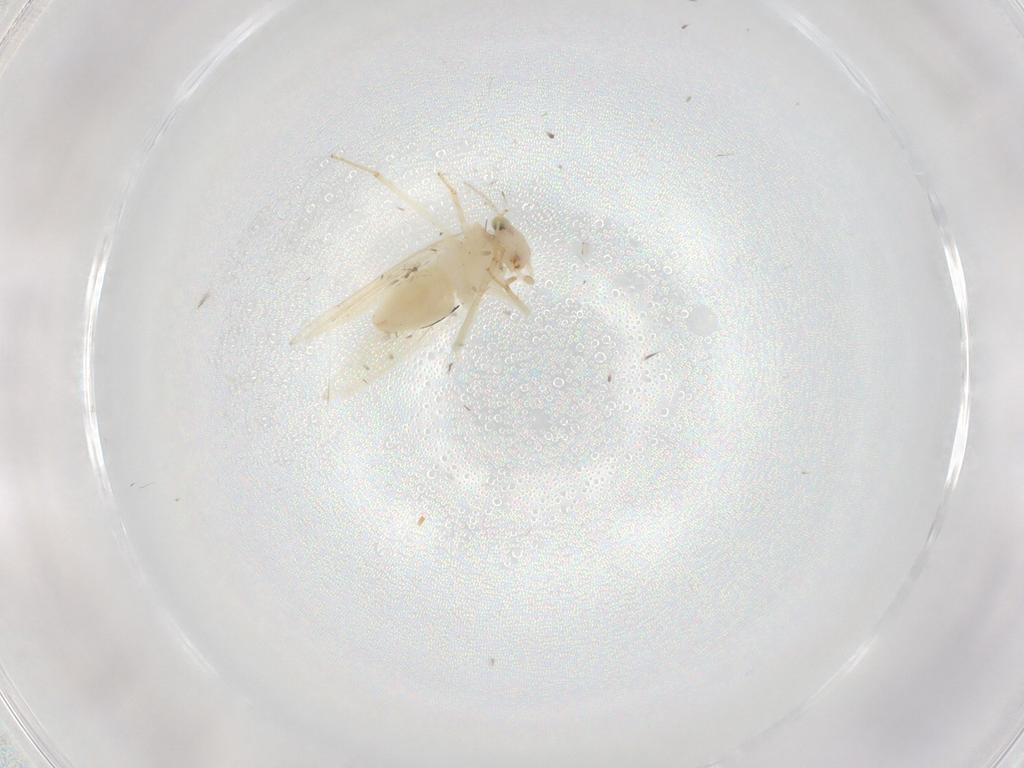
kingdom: Animalia
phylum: Arthropoda
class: Insecta
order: Psocodea
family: Lepidopsocidae
